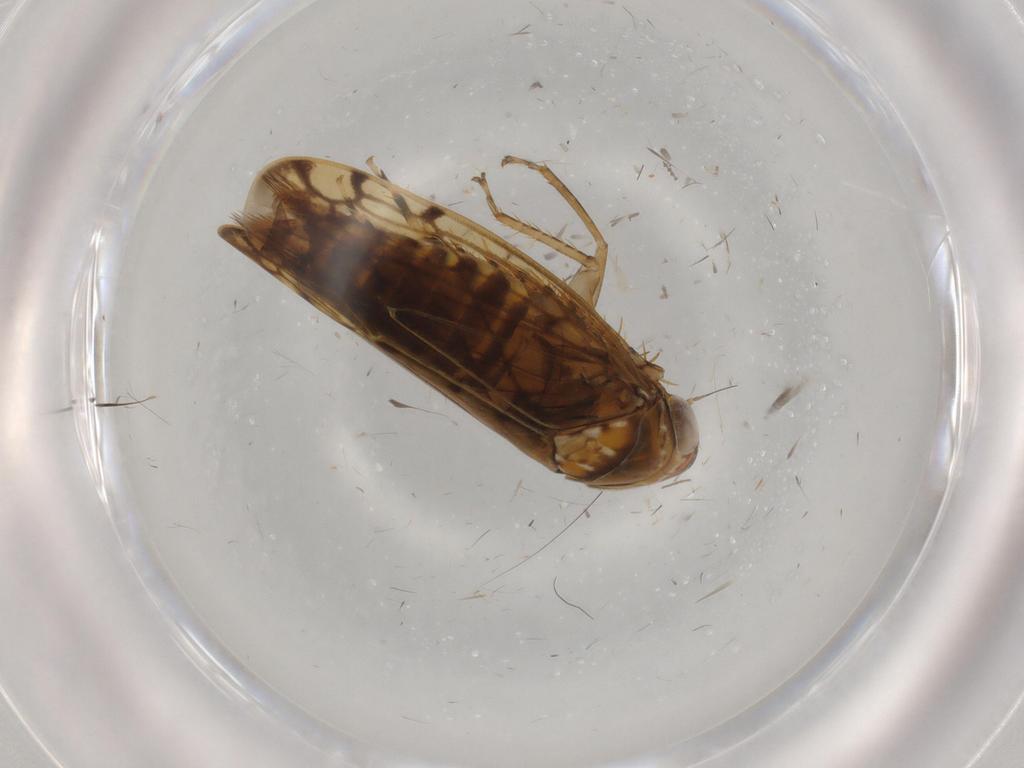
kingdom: Animalia
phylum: Arthropoda
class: Insecta
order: Hemiptera
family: Cicadellidae
